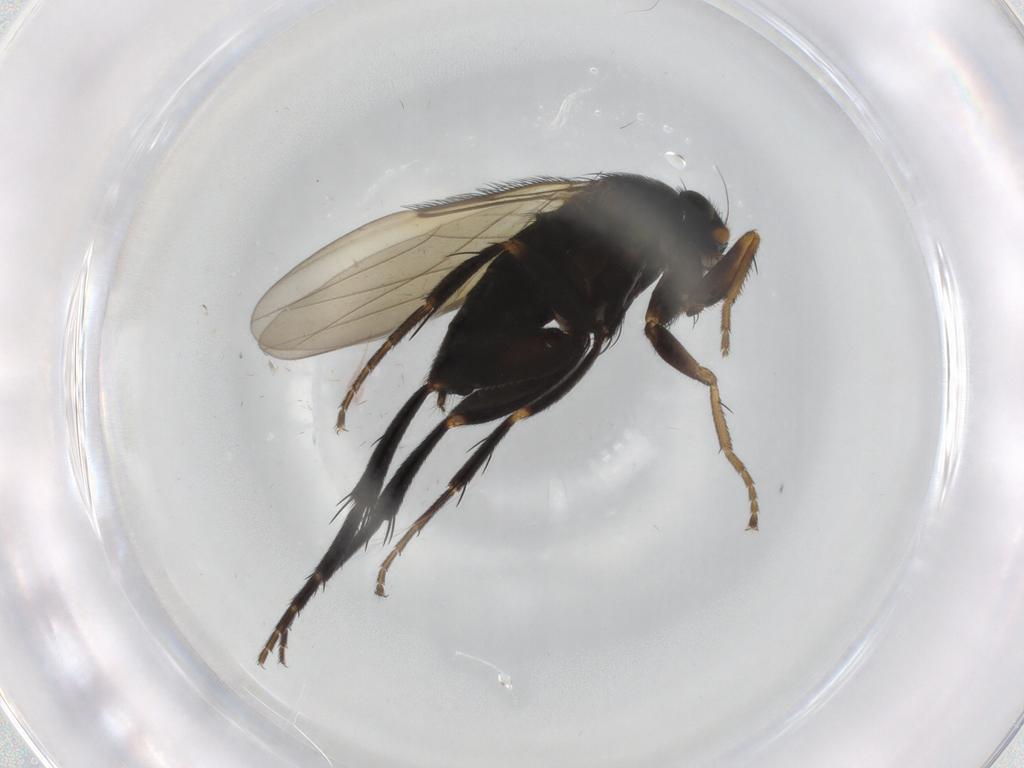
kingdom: Animalia
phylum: Arthropoda
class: Insecta
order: Diptera
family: Phoridae
